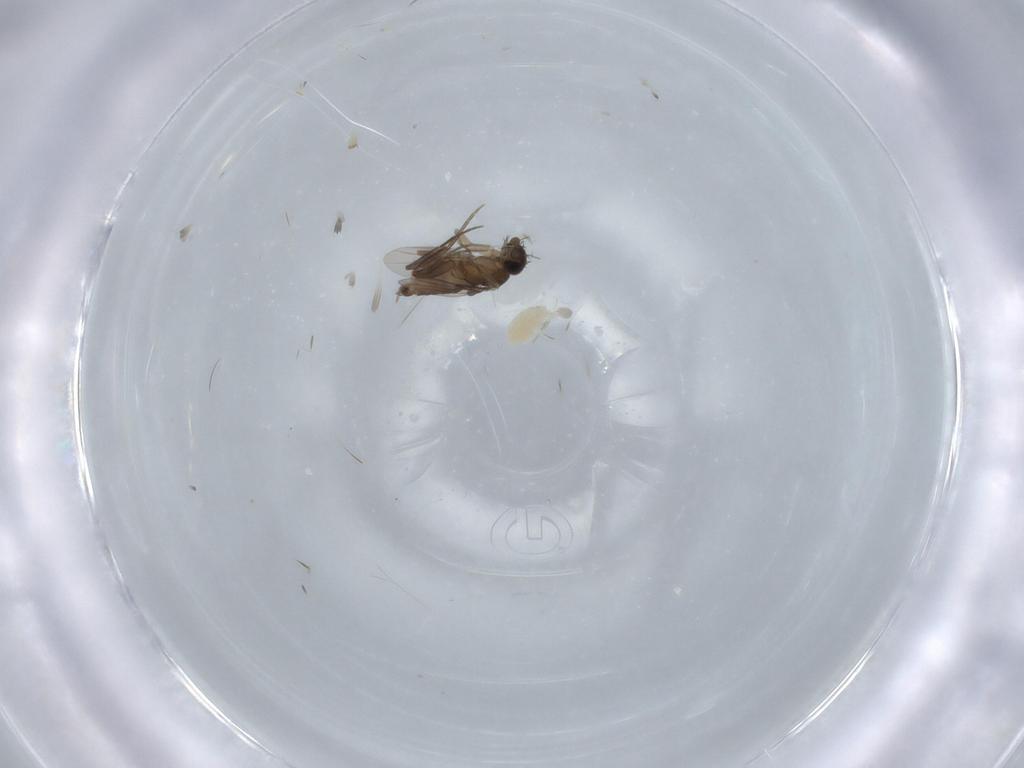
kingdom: Animalia
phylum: Arthropoda
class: Insecta
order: Diptera
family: Phoridae
